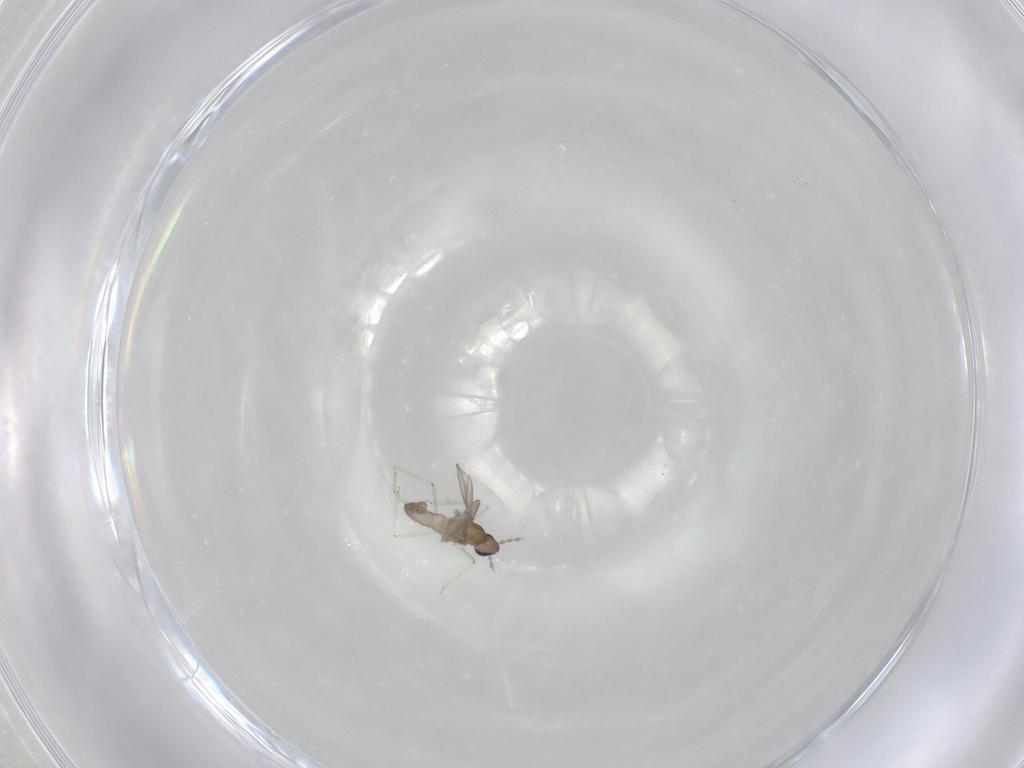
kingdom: Animalia
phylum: Arthropoda
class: Insecta
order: Diptera
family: Cecidomyiidae
